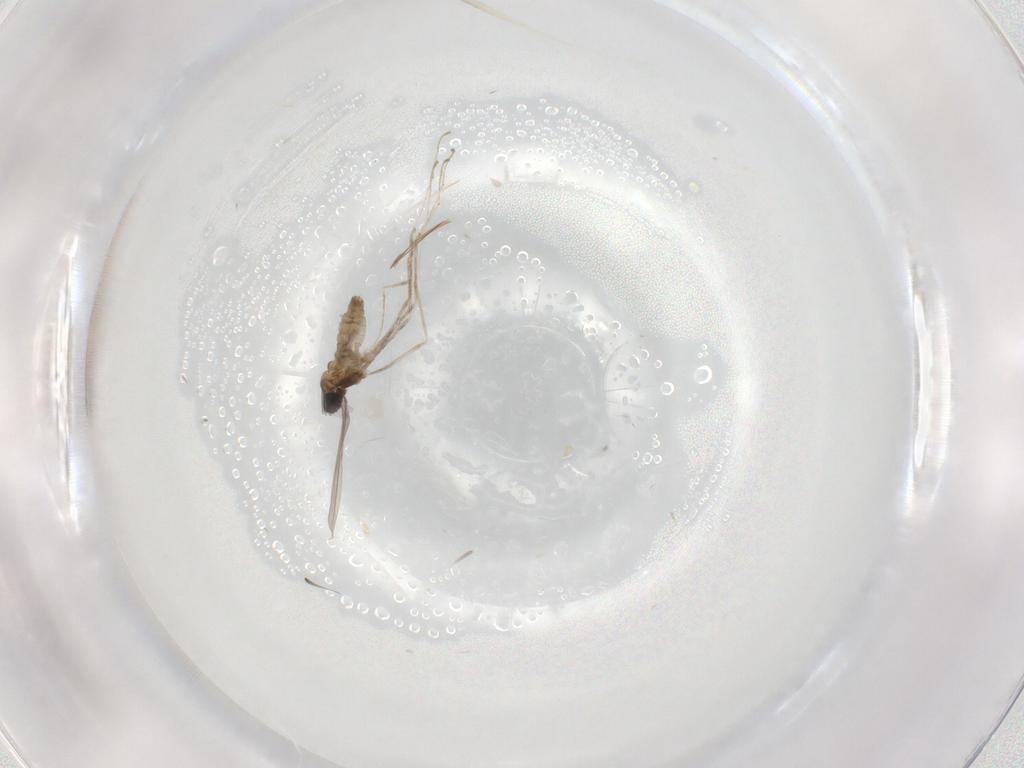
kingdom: Animalia
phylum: Arthropoda
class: Insecta
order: Diptera
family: Cecidomyiidae
